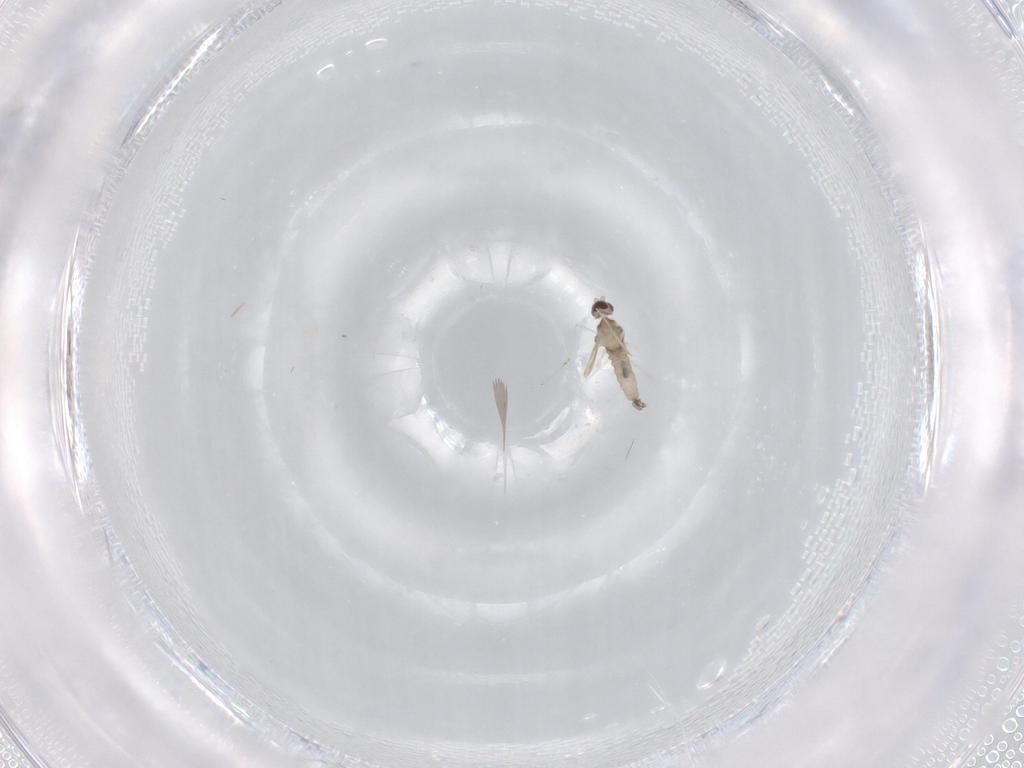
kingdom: Animalia
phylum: Arthropoda
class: Insecta
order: Diptera
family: Cecidomyiidae
